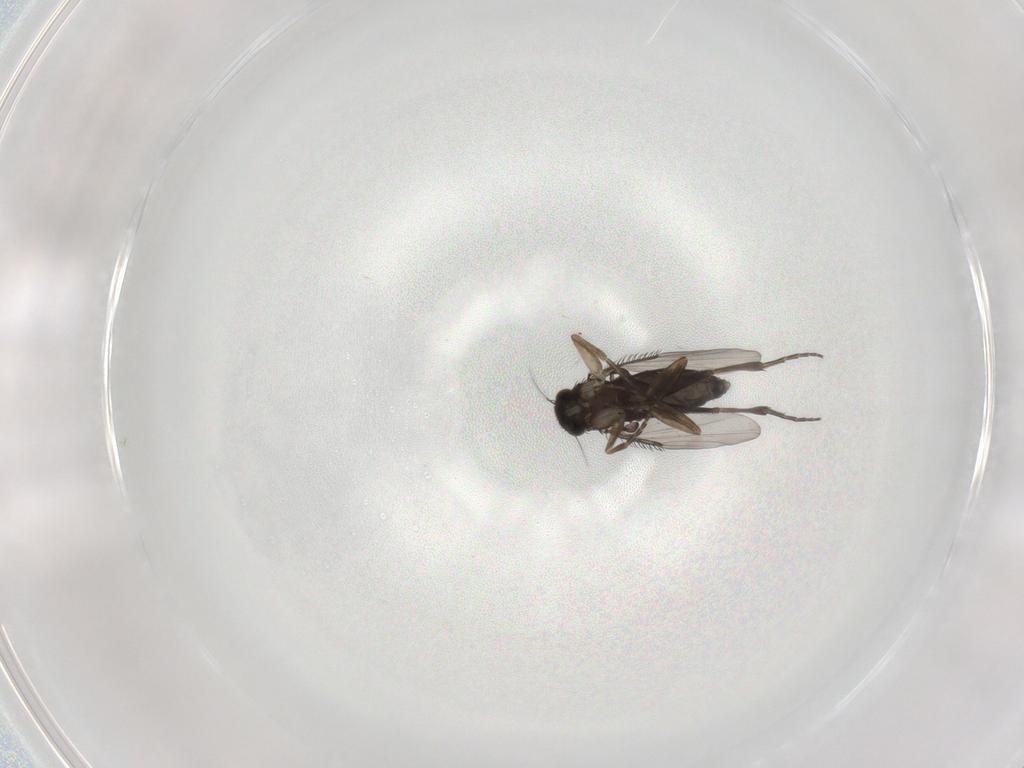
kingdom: Animalia
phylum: Arthropoda
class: Insecta
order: Diptera
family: Phoridae
